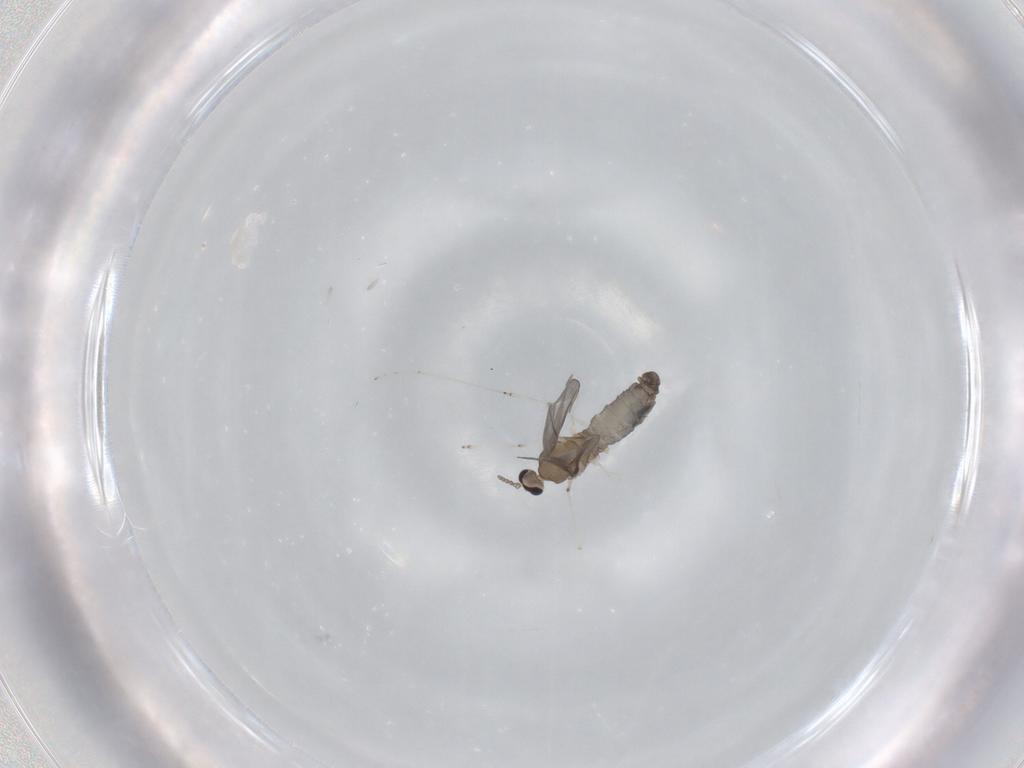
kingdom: Animalia
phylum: Arthropoda
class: Insecta
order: Diptera
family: Cecidomyiidae
